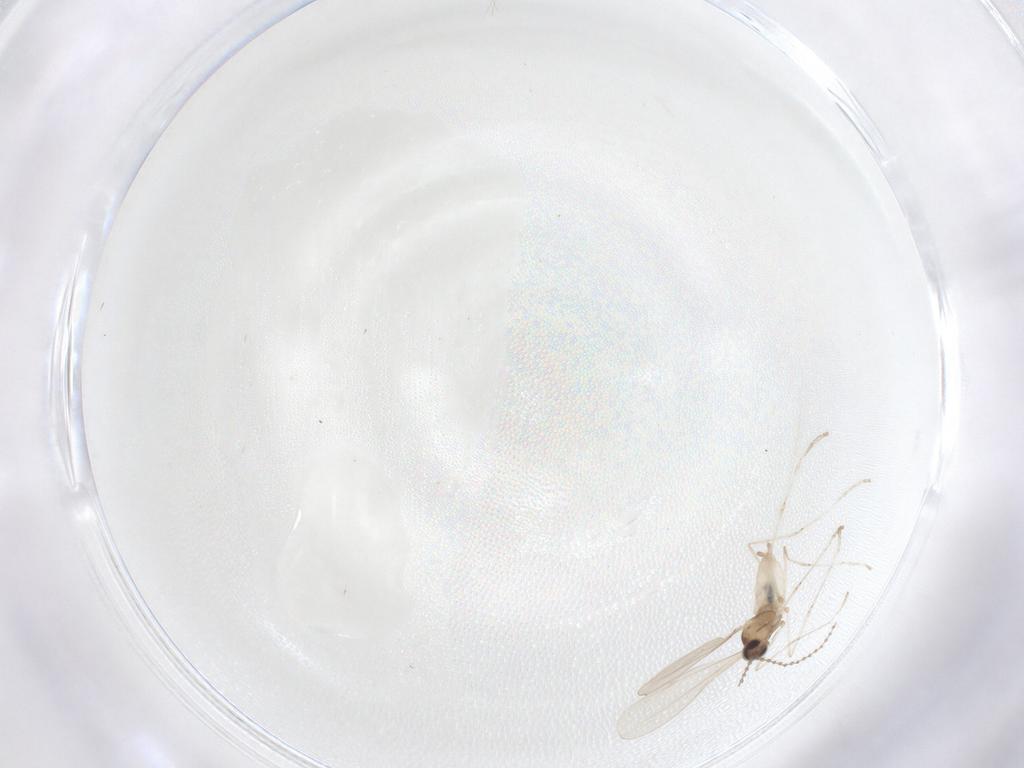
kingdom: Animalia
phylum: Arthropoda
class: Insecta
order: Diptera
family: Cecidomyiidae
